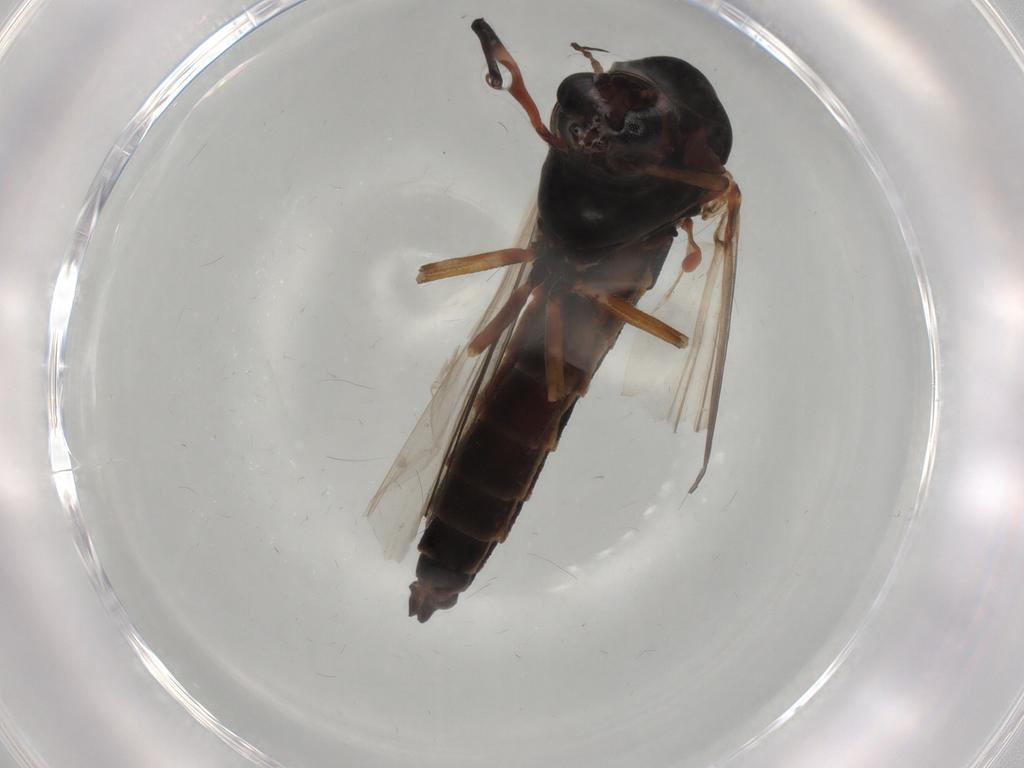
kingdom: Animalia
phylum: Arthropoda
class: Insecta
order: Diptera
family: Chironomidae
